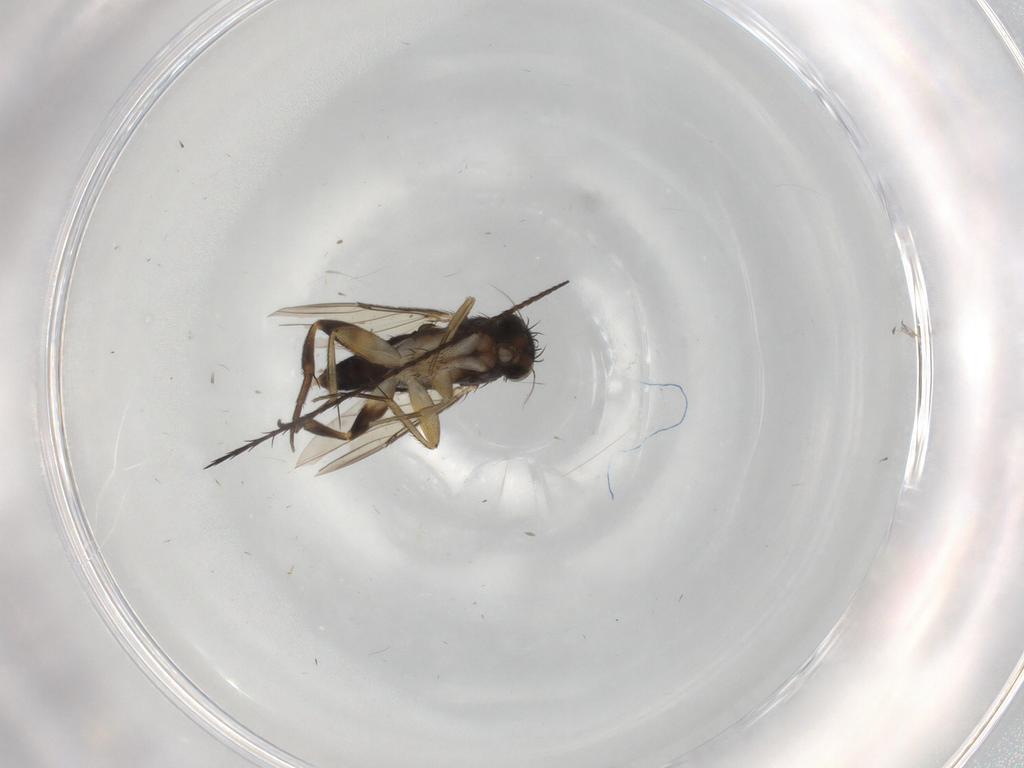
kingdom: Animalia
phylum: Arthropoda
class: Insecta
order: Diptera
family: Phoridae
